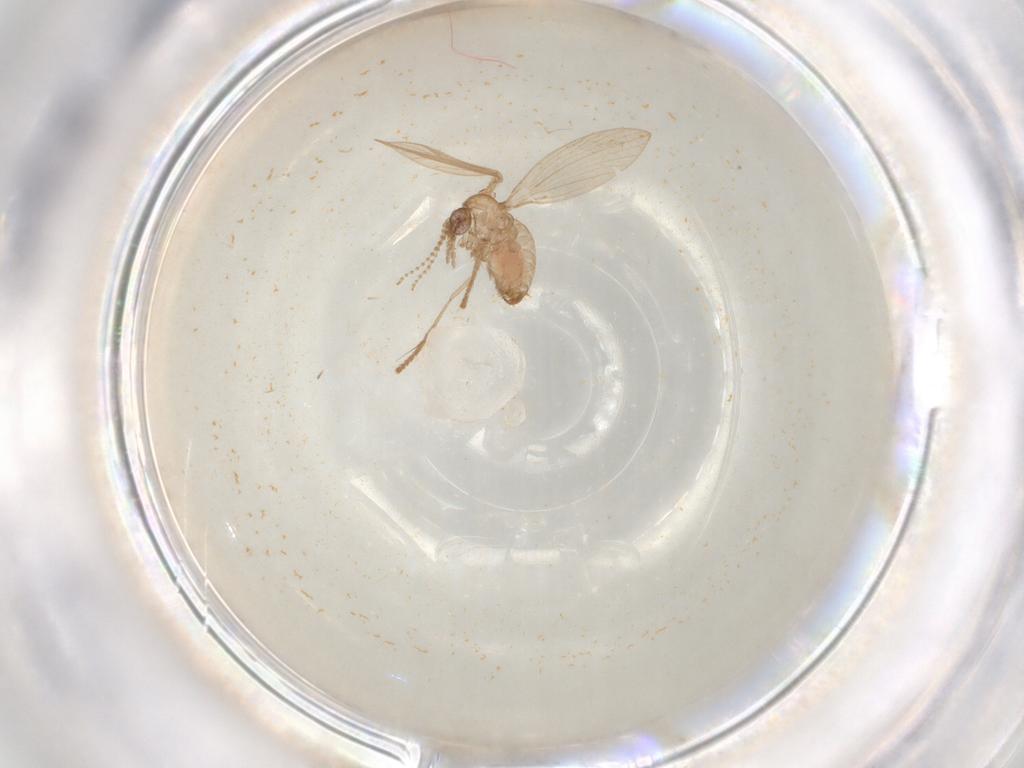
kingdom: Animalia
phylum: Arthropoda
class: Insecta
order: Diptera
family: Psychodidae
